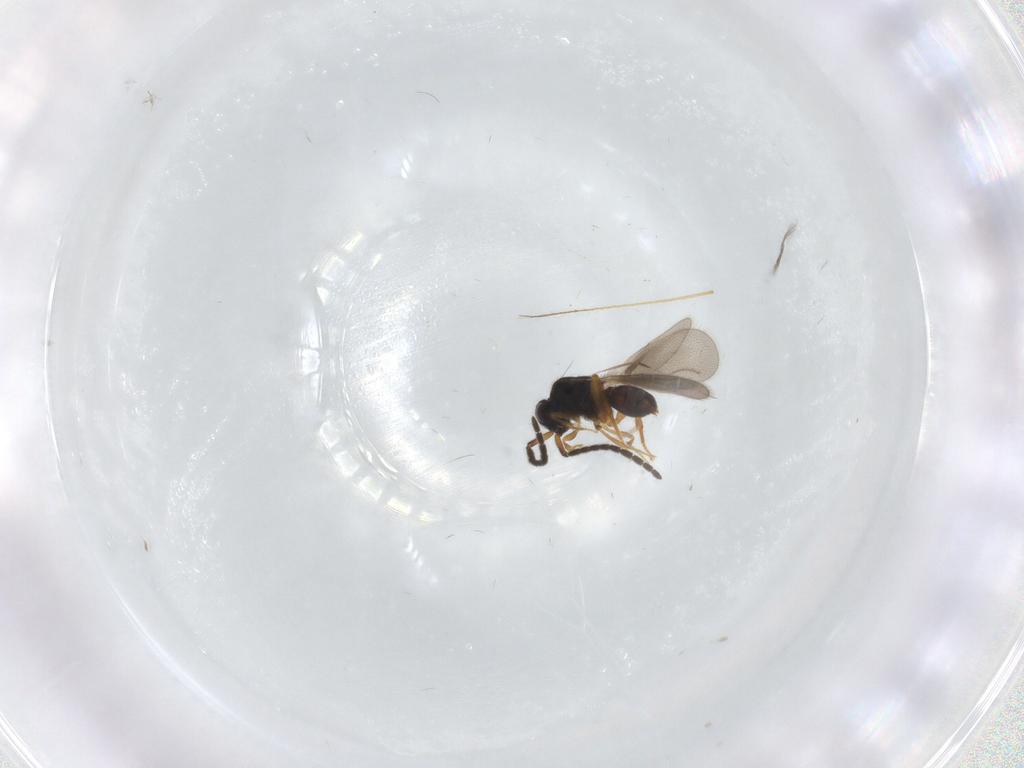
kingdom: Animalia
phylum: Arthropoda
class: Insecta
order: Hymenoptera
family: Ceraphronidae
